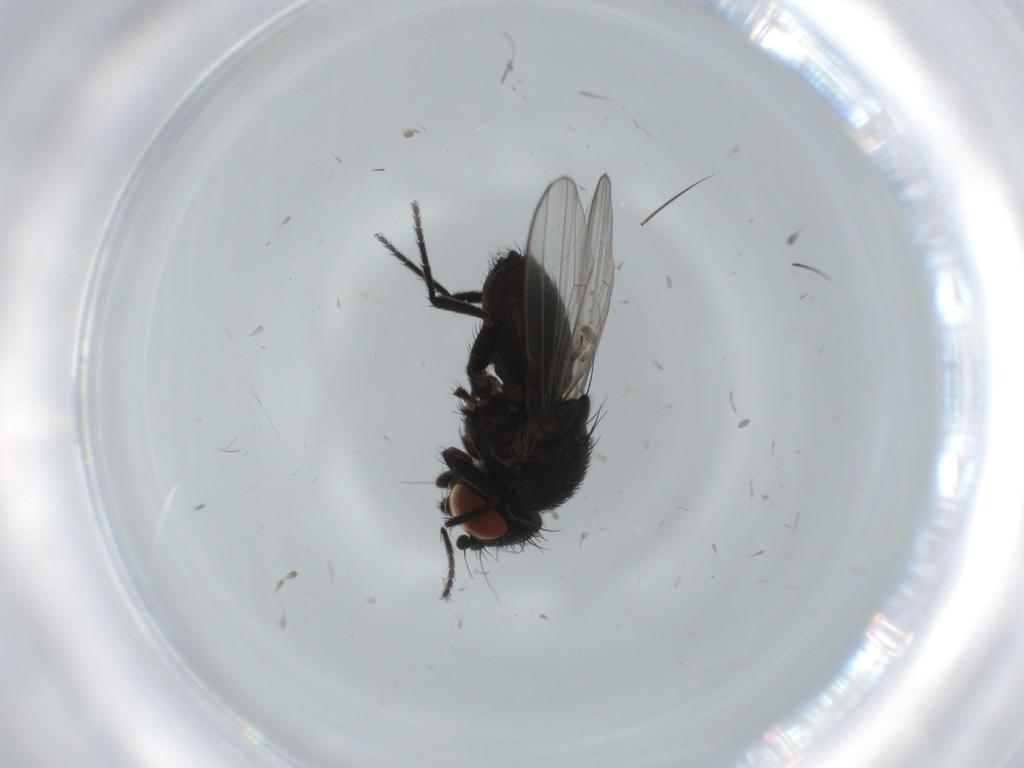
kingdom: Animalia
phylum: Arthropoda
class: Insecta
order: Diptera
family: Milichiidae
